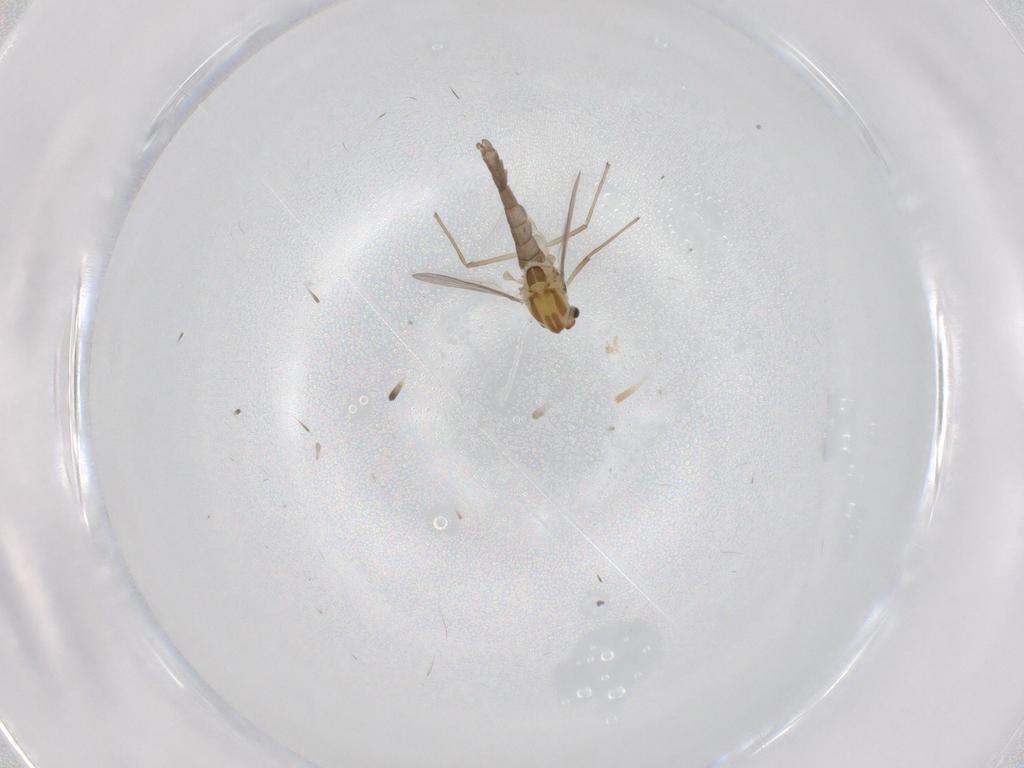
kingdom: Animalia
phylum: Arthropoda
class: Insecta
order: Diptera
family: Chironomidae
